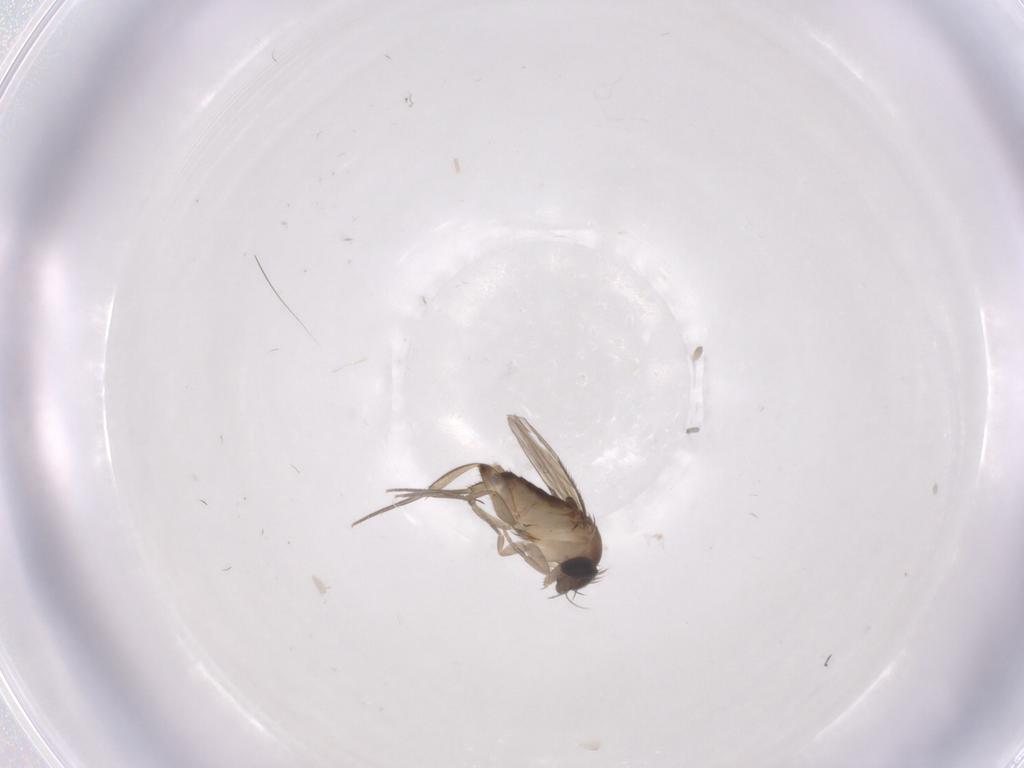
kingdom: Animalia
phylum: Arthropoda
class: Insecta
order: Diptera
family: Phoridae
